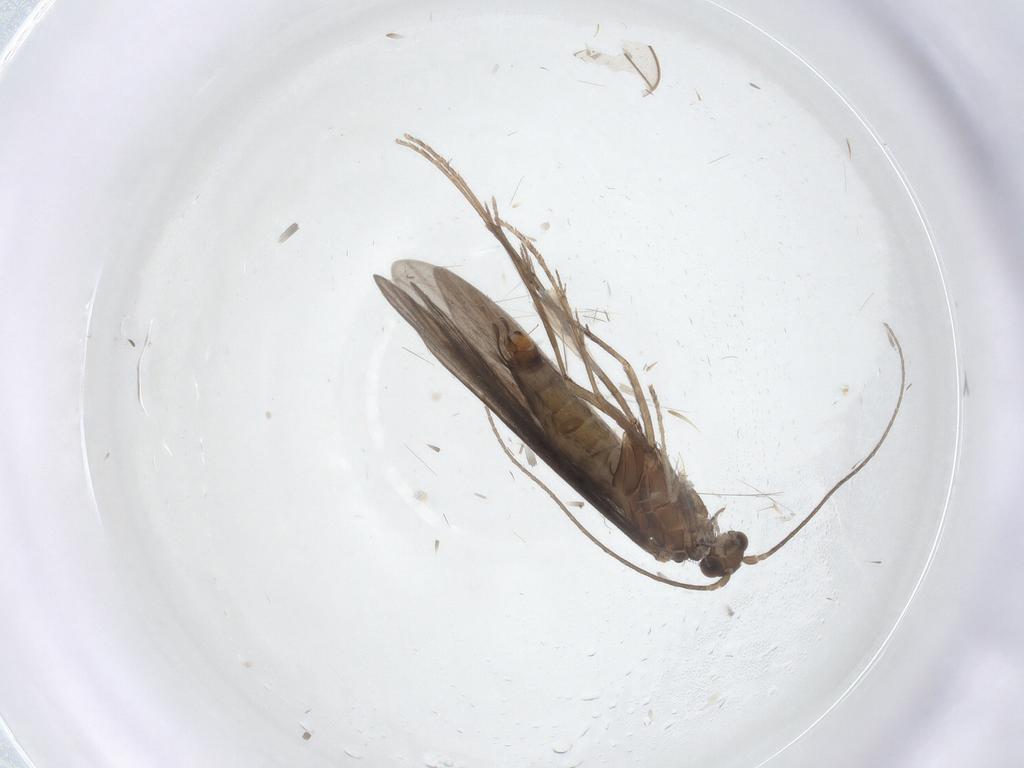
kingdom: Animalia
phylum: Arthropoda
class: Insecta
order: Trichoptera
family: Xiphocentronidae
